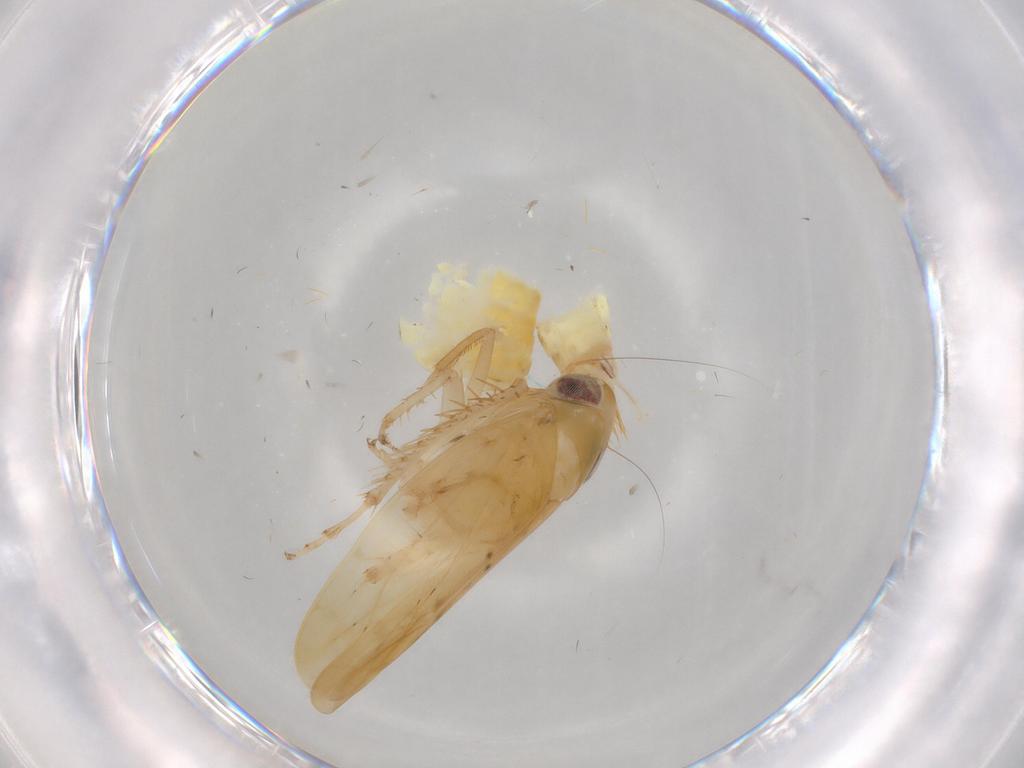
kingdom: Animalia
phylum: Arthropoda
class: Insecta
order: Hemiptera
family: Cicadellidae
